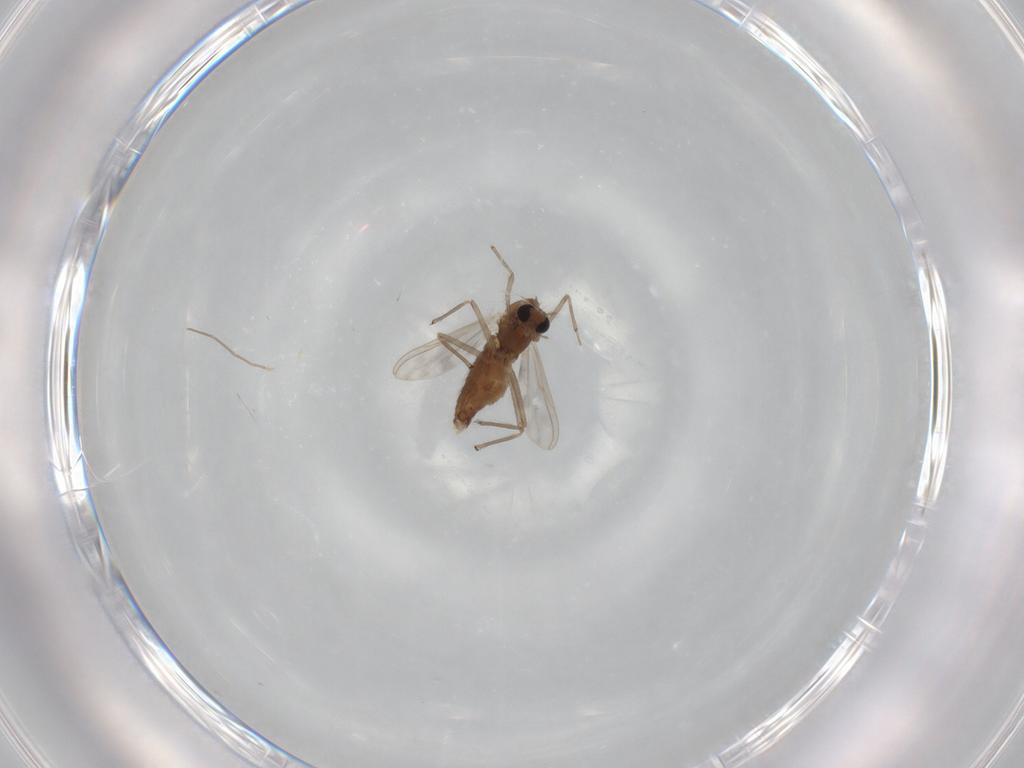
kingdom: Animalia
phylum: Arthropoda
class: Insecta
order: Diptera
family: Chironomidae
